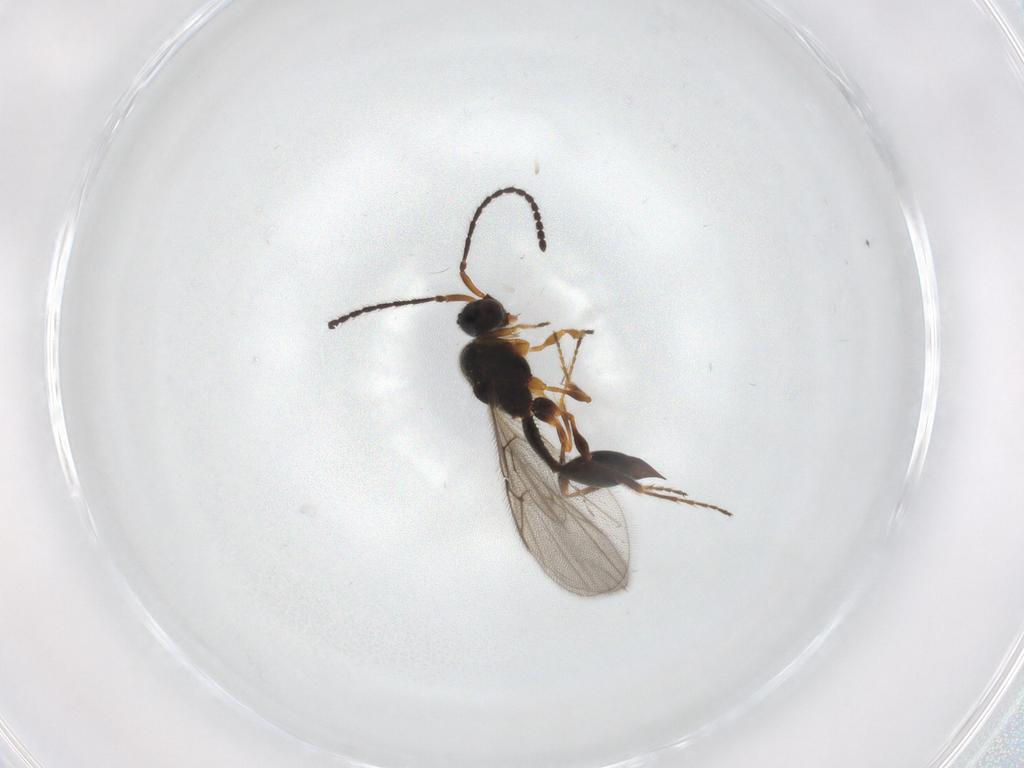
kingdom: Animalia
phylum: Arthropoda
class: Insecta
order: Hymenoptera
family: Diapriidae
